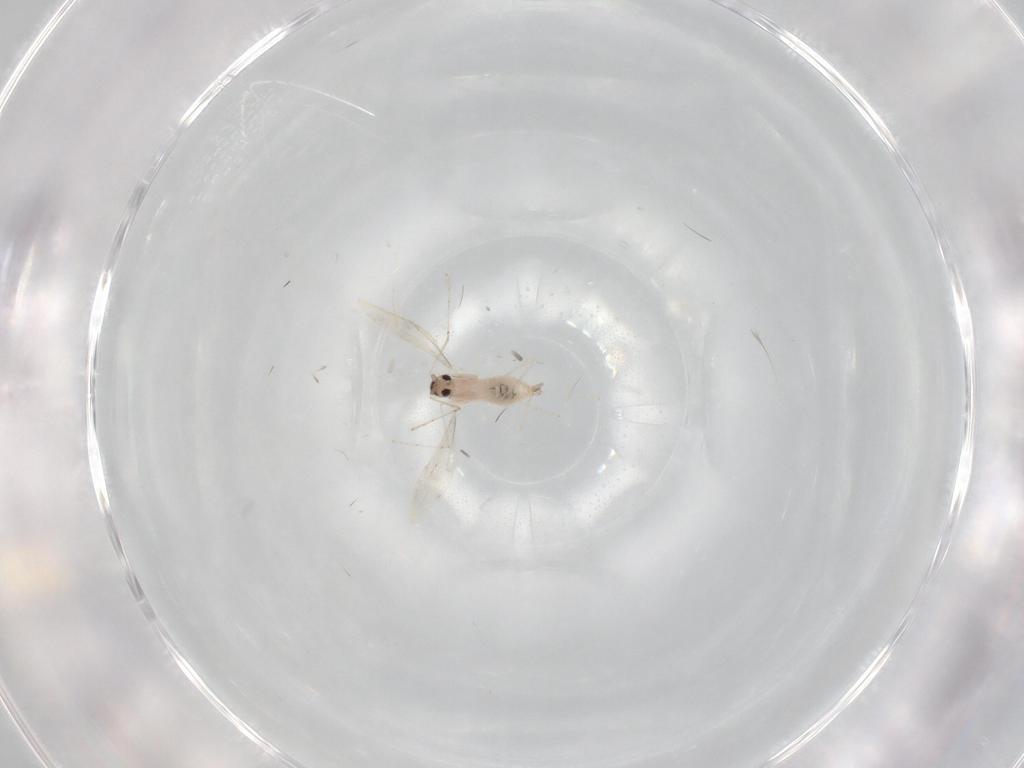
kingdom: Animalia
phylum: Arthropoda
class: Insecta
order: Diptera
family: Cecidomyiidae
